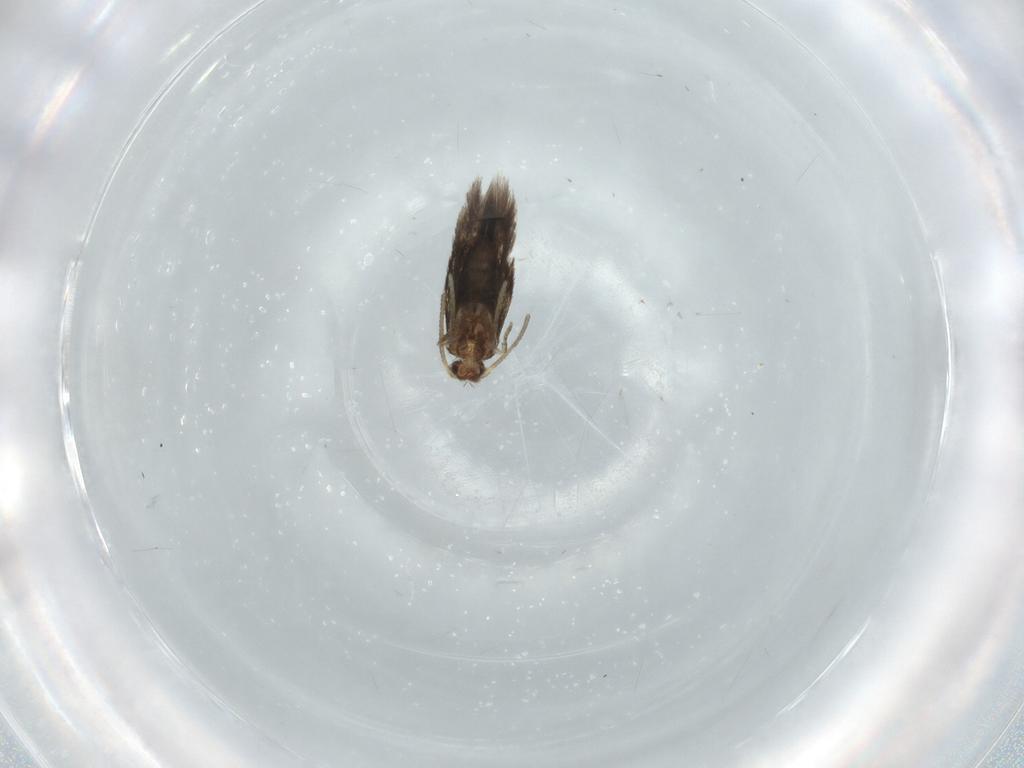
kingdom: Animalia
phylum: Arthropoda
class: Insecta
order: Lepidoptera
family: Nepticulidae
